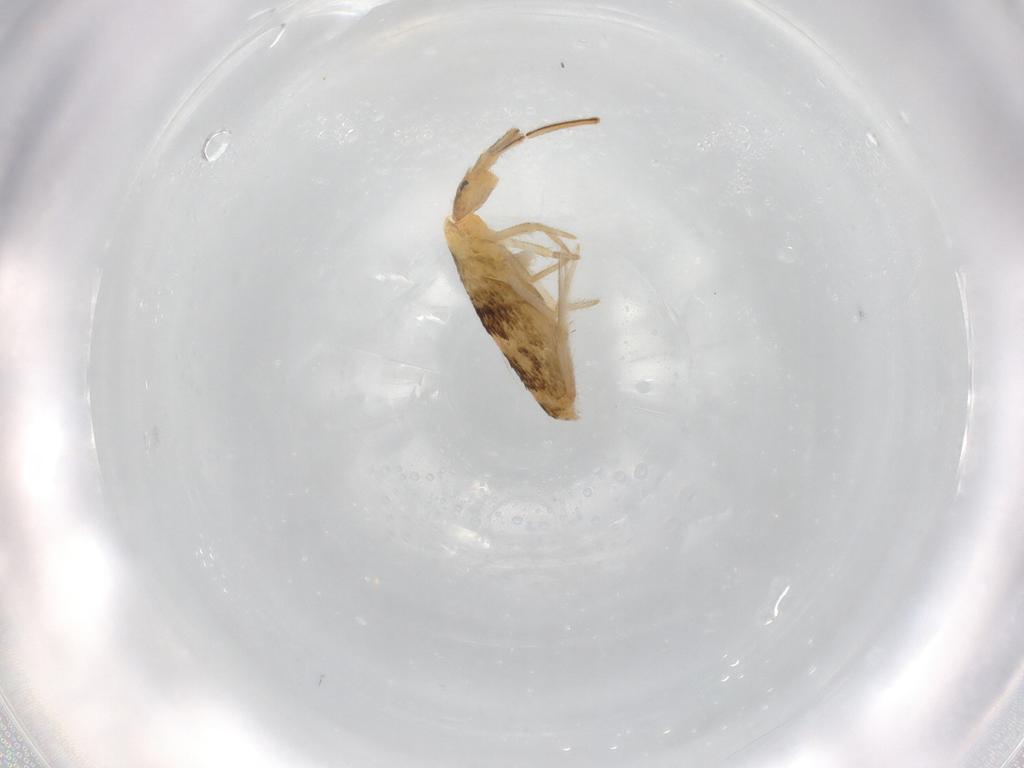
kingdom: Animalia
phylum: Arthropoda
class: Collembola
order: Entomobryomorpha
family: Entomobryidae
